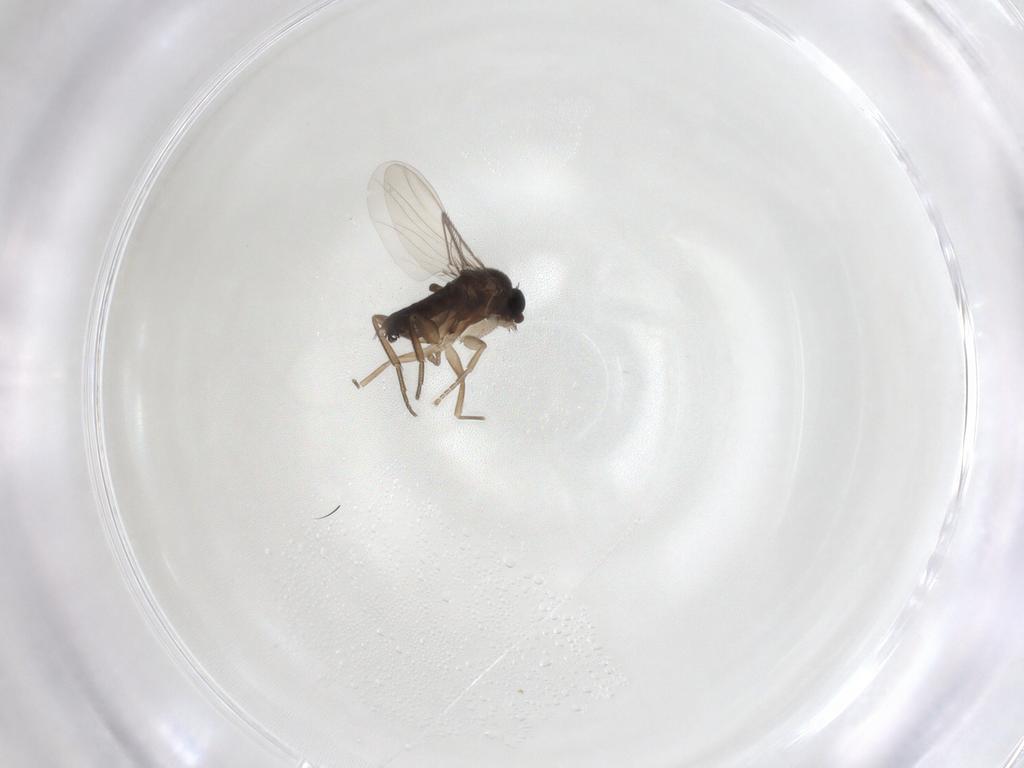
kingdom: Animalia
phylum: Arthropoda
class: Insecta
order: Diptera
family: Phoridae
